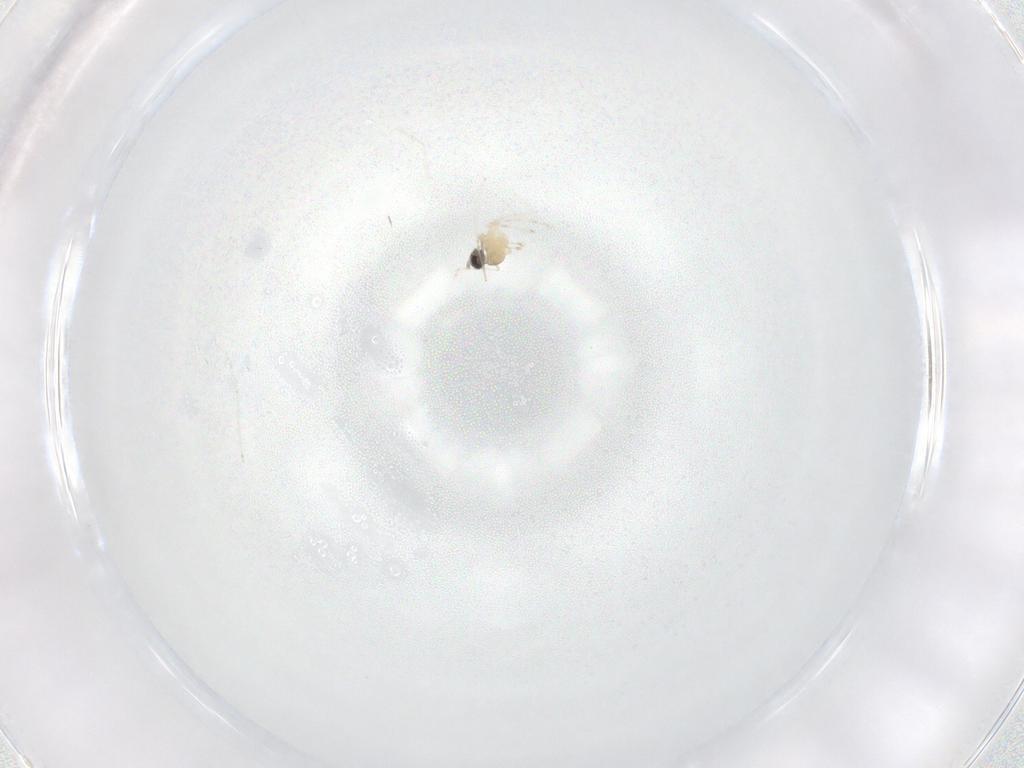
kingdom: Animalia
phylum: Arthropoda
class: Insecta
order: Diptera
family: Cecidomyiidae
